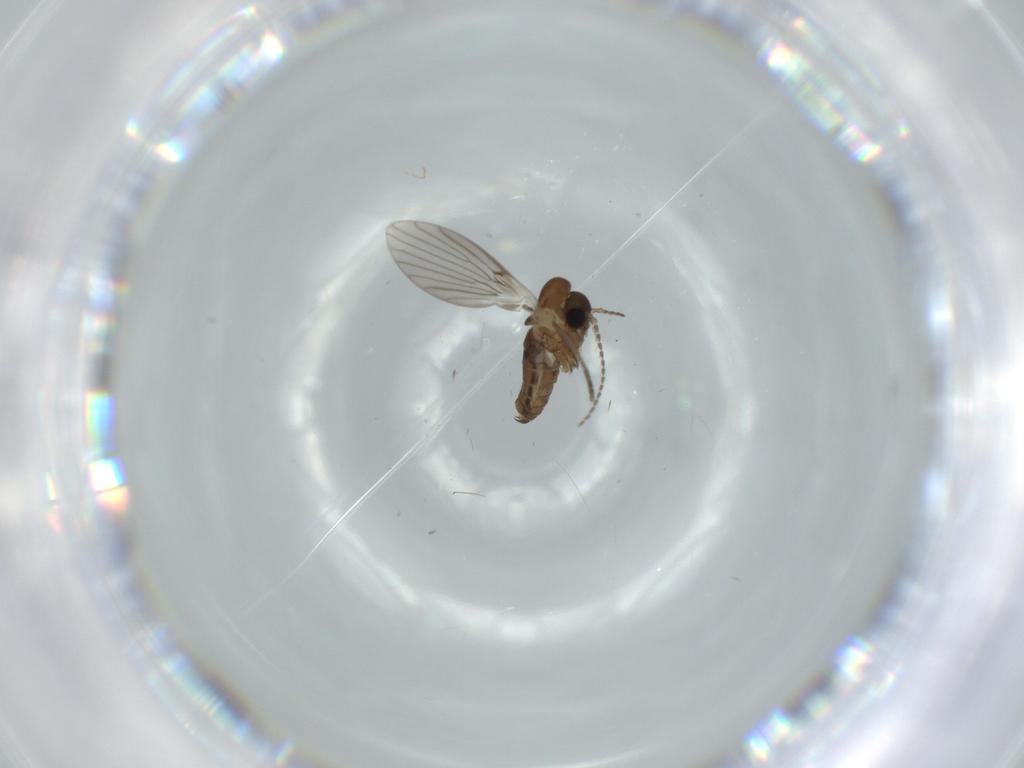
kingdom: Animalia
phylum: Arthropoda
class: Insecta
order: Diptera
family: Psychodidae
